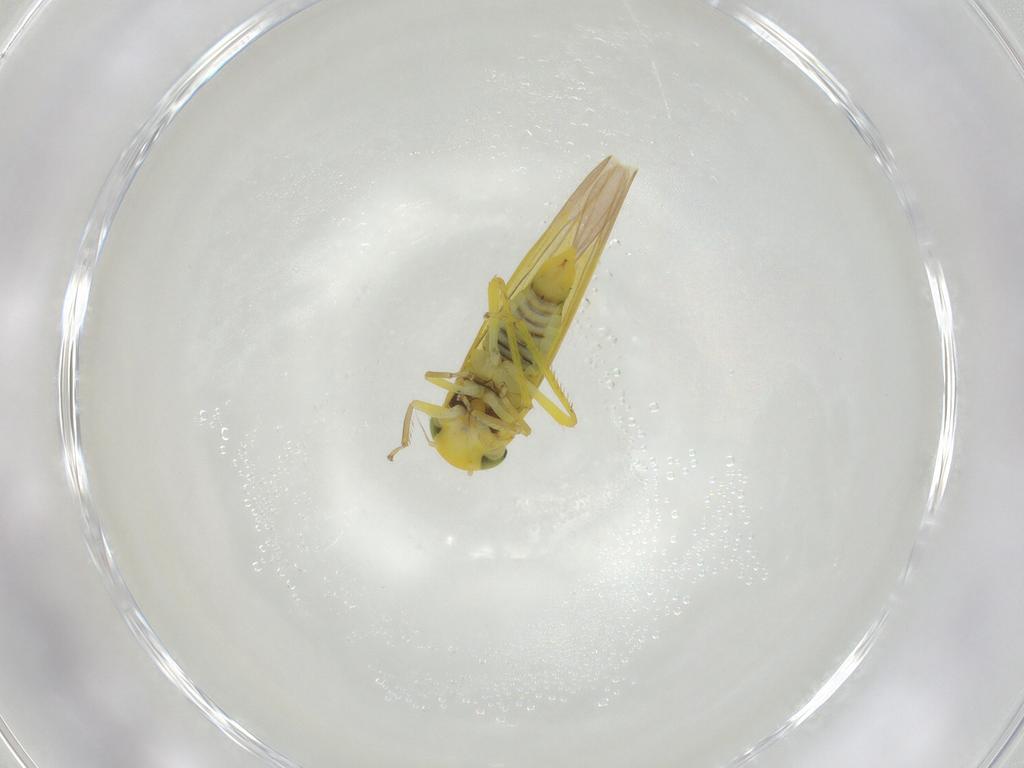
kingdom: Animalia
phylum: Arthropoda
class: Insecta
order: Hemiptera
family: Cicadellidae
